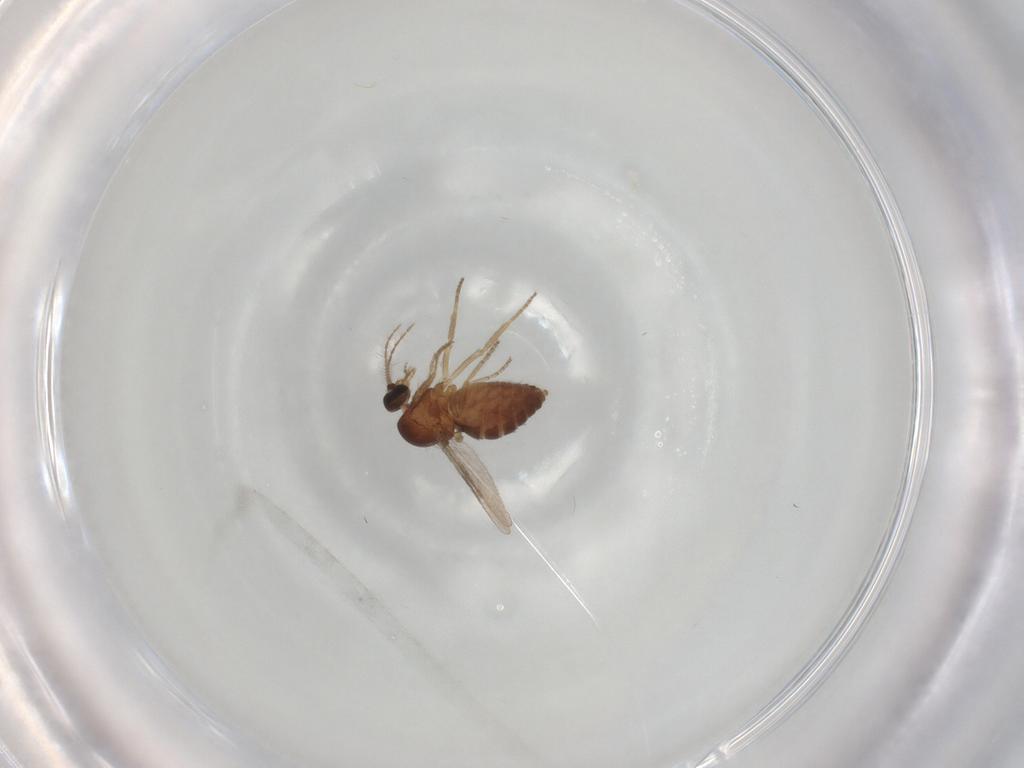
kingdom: Animalia
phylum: Arthropoda
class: Insecta
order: Diptera
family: Ceratopogonidae
